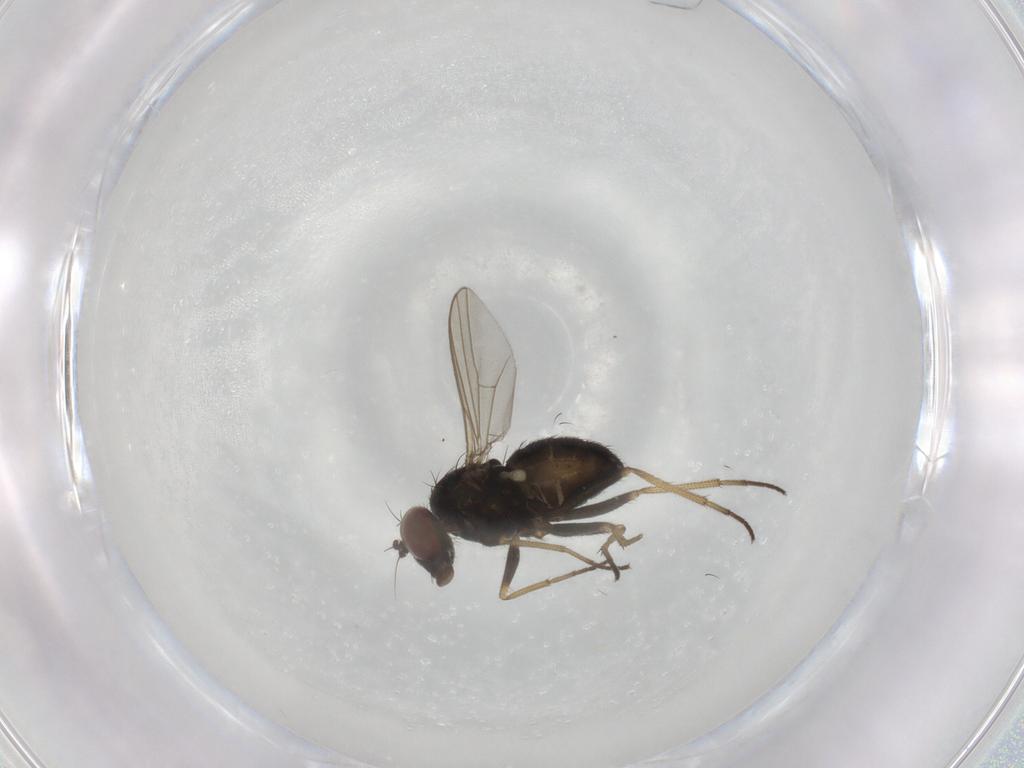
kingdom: Animalia
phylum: Arthropoda
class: Insecta
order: Diptera
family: Dolichopodidae
